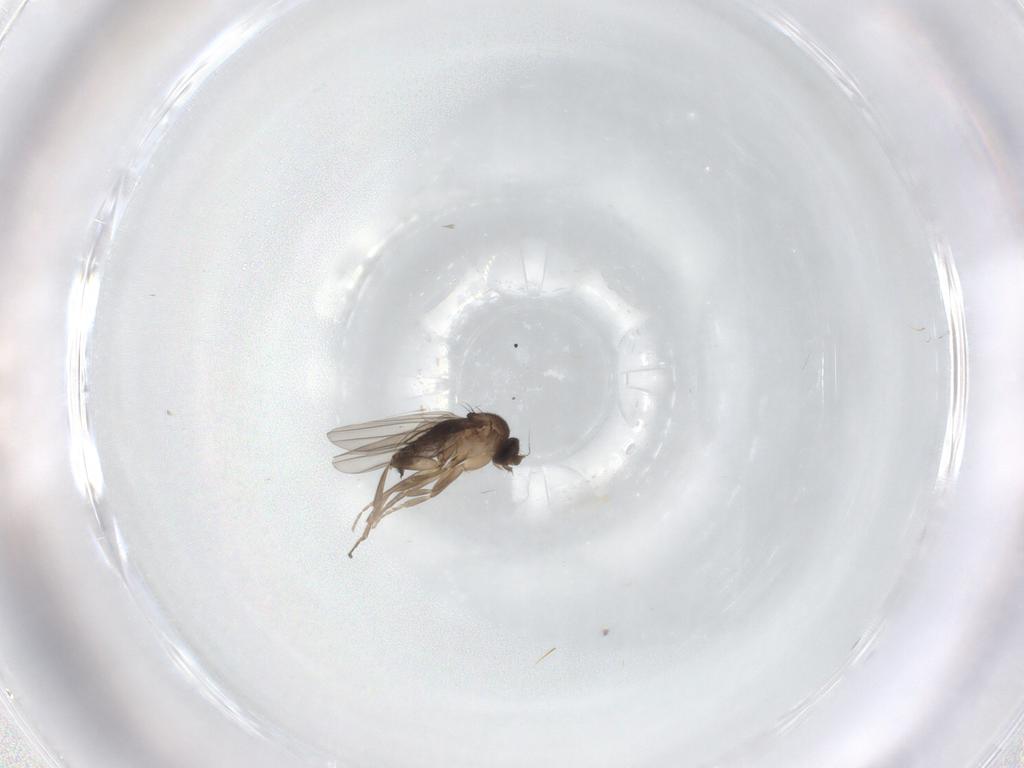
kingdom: Animalia
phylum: Arthropoda
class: Insecta
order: Diptera
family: Phoridae
